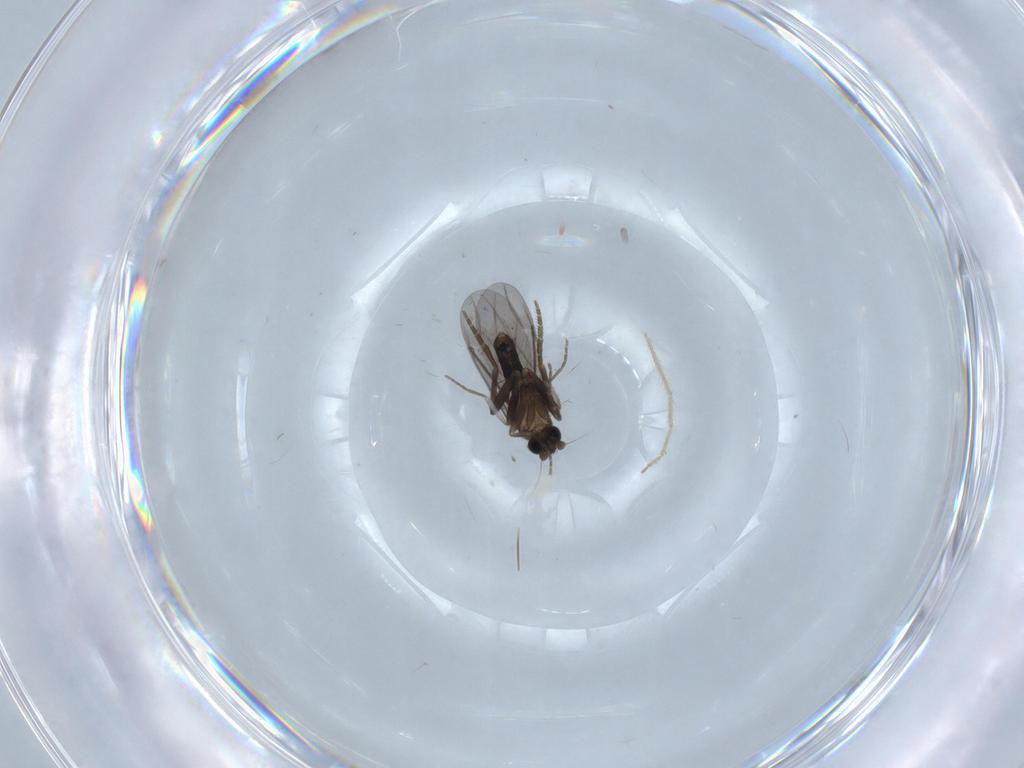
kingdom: Animalia
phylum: Arthropoda
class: Insecta
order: Diptera
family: Phoridae
